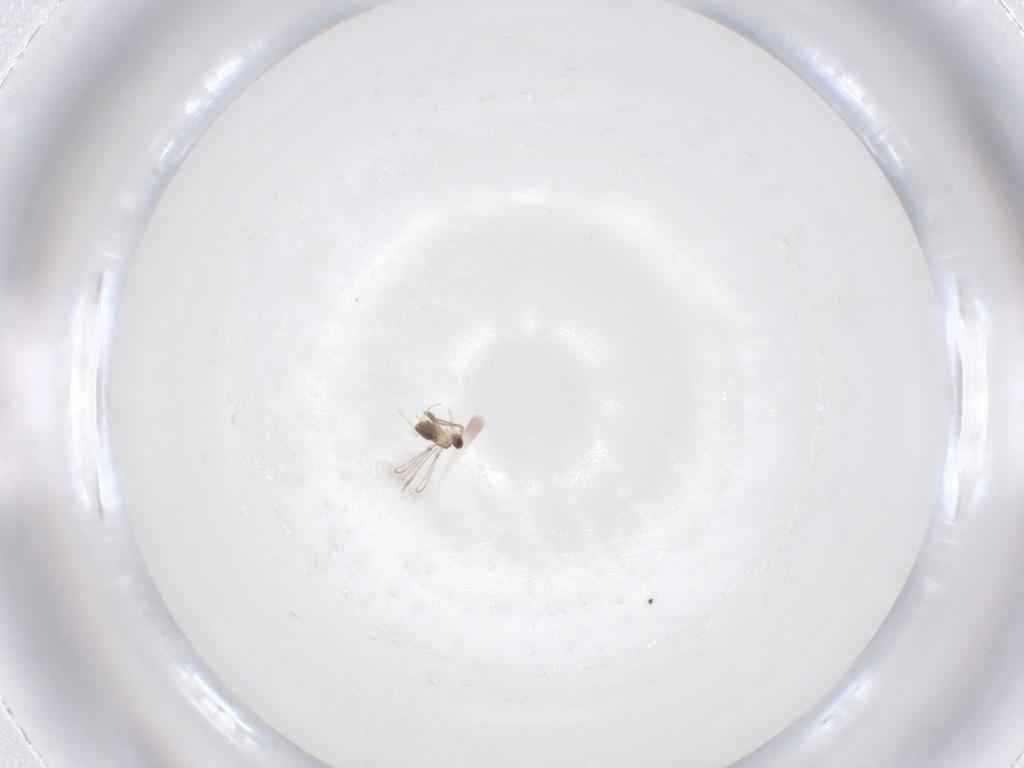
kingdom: Animalia
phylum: Arthropoda
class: Insecta
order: Hymenoptera
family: Mymaridae
